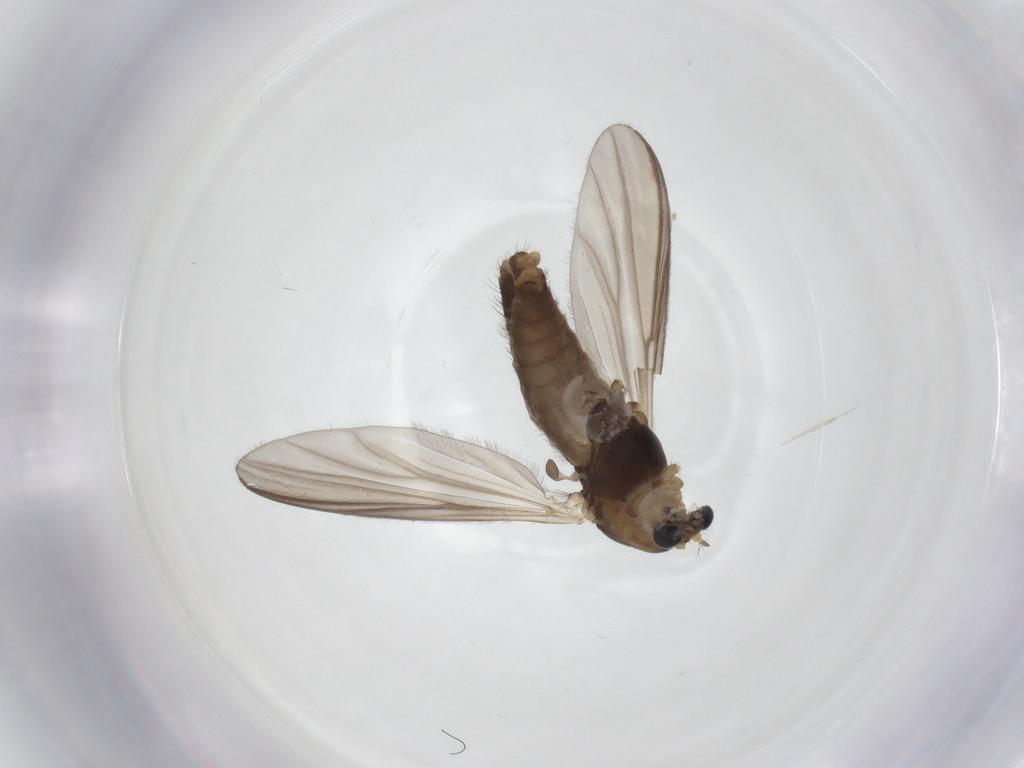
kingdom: Animalia
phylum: Arthropoda
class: Insecta
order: Diptera
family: Chironomidae
